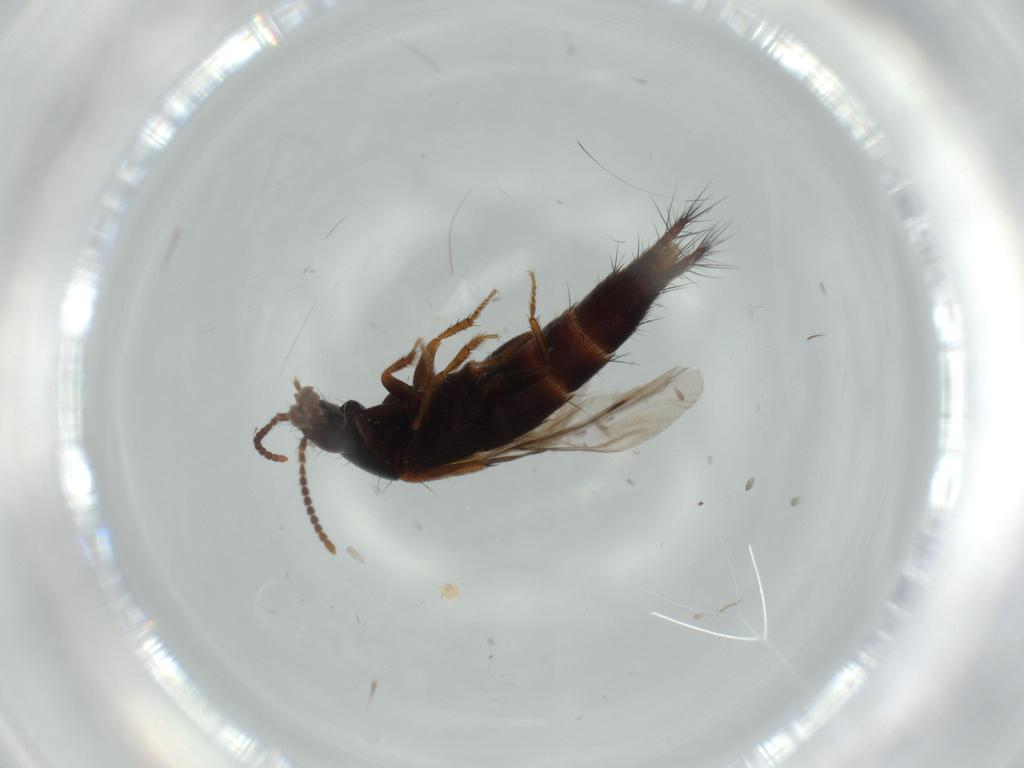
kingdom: Animalia
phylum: Arthropoda
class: Insecta
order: Coleoptera
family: Staphylinidae
